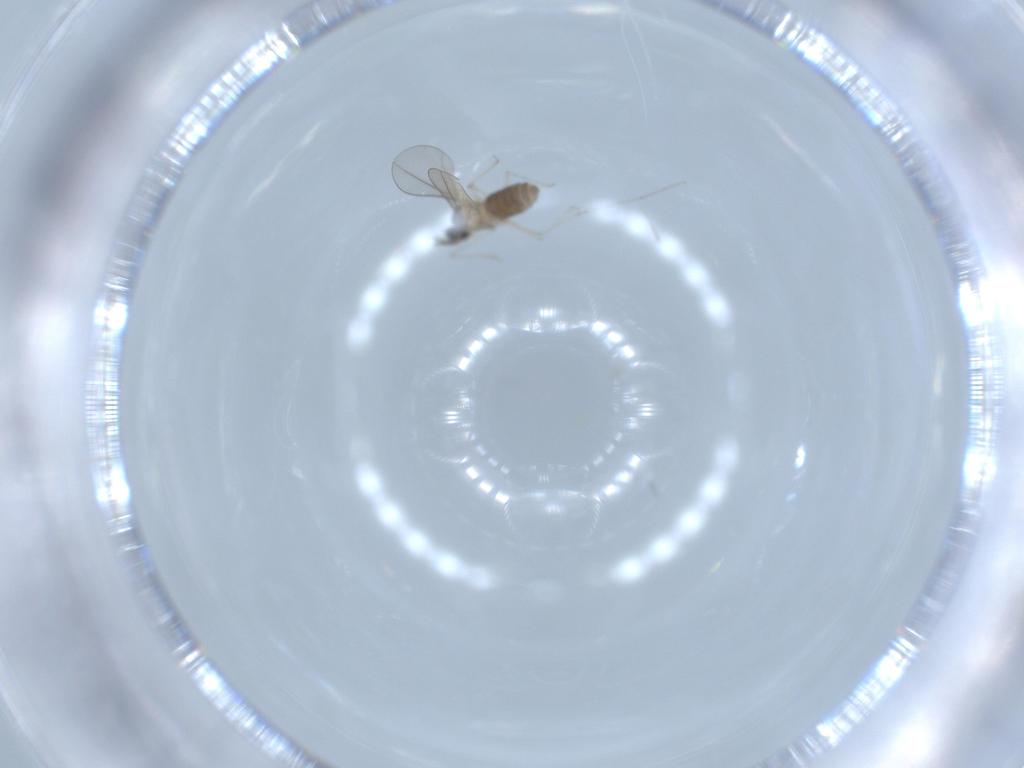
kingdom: Animalia
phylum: Arthropoda
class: Insecta
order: Diptera
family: Cecidomyiidae
